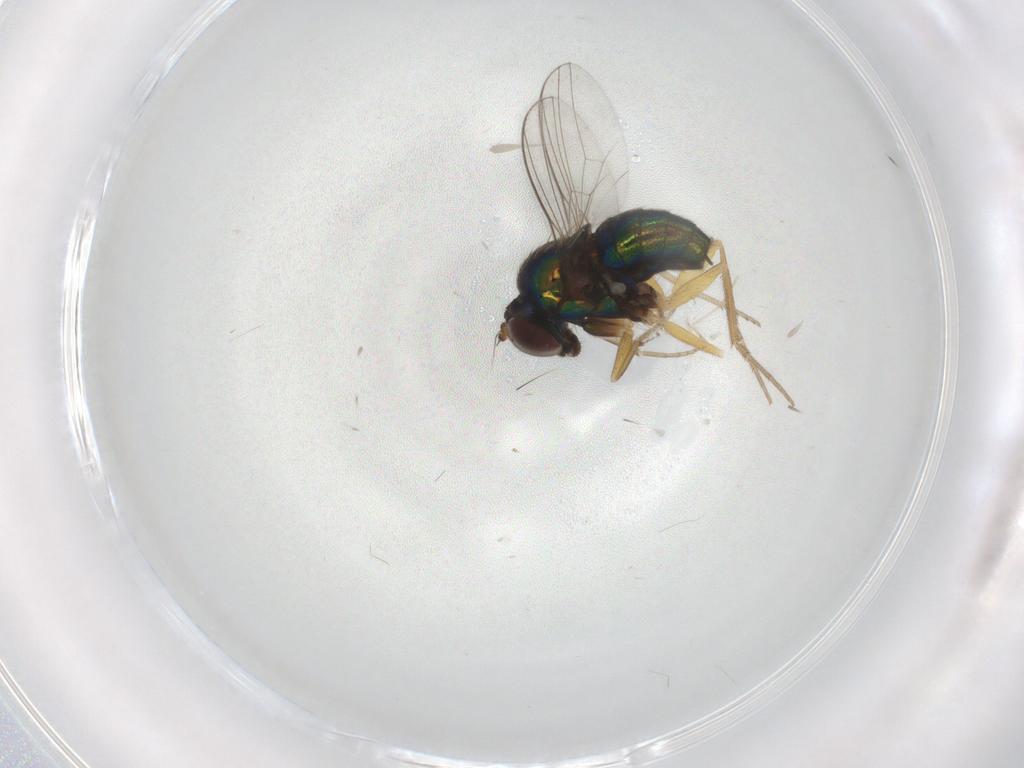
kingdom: Animalia
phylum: Arthropoda
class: Insecta
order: Diptera
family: Dolichopodidae
